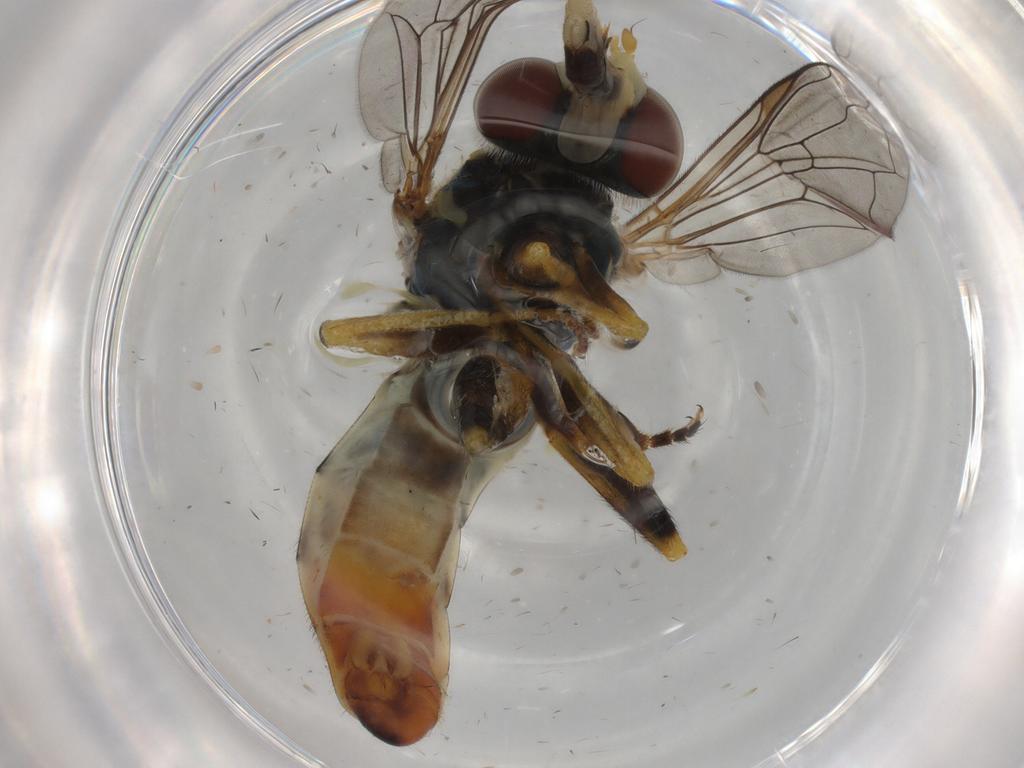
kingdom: Animalia
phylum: Arthropoda
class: Insecta
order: Diptera
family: Syrphidae
